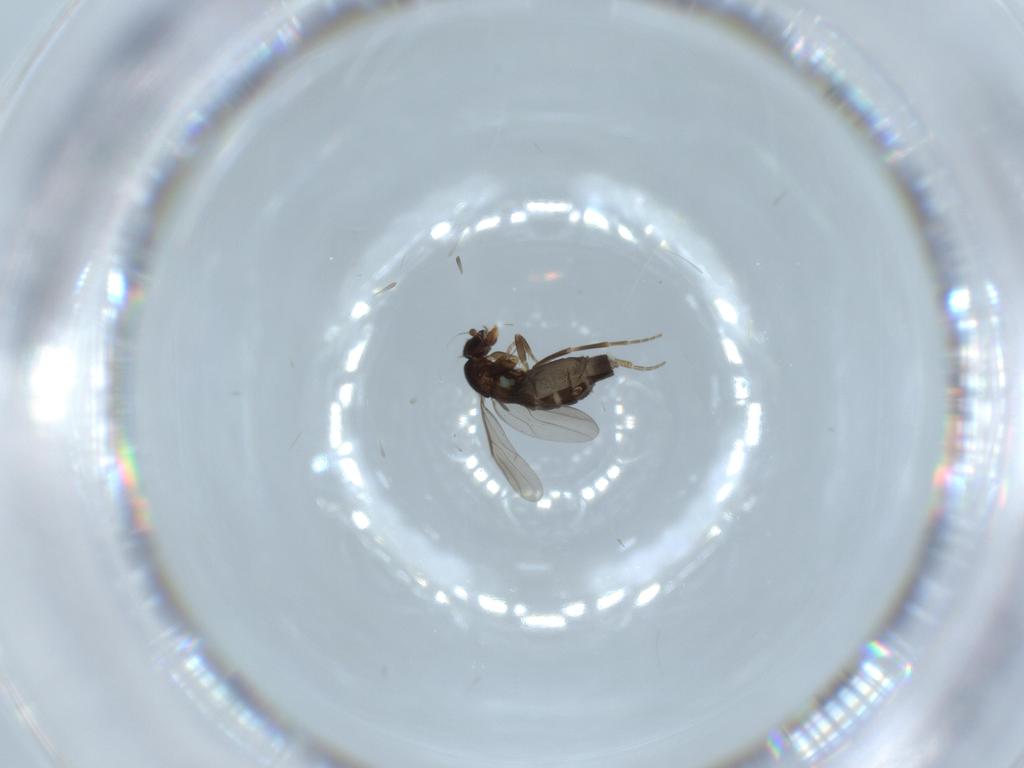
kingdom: Animalia
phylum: Arthropoda
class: Insecta
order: Diptera
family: Phoridae
